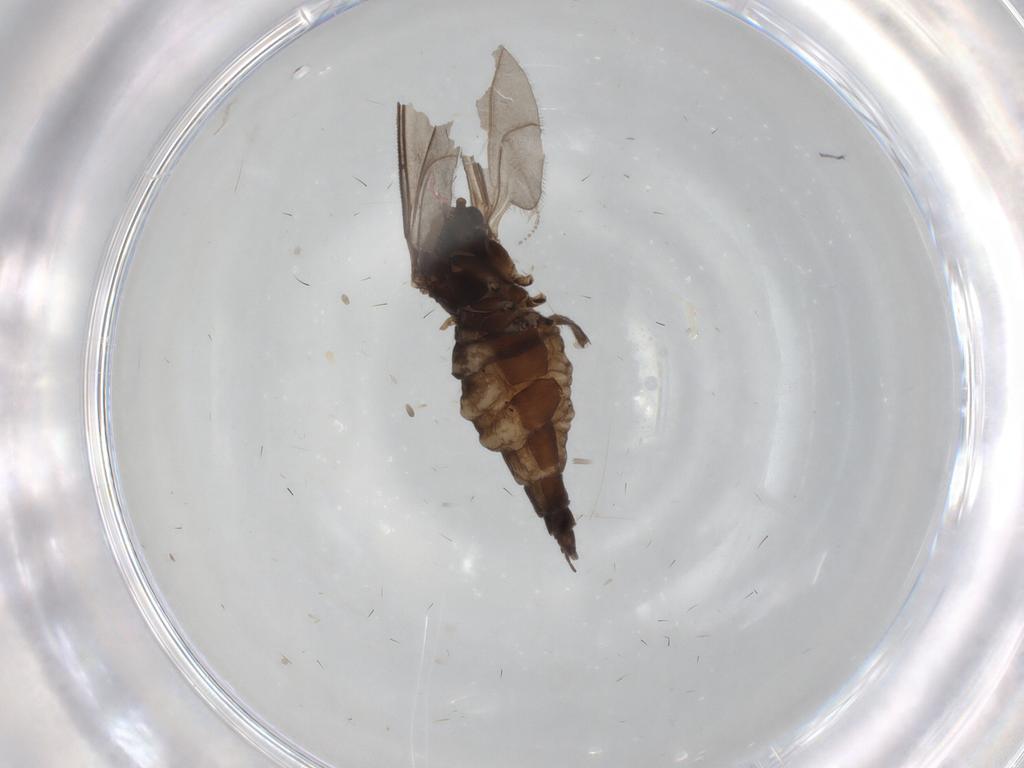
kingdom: Animalia
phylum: Arthropoda
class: Insecta
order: Diptera
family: Sciaridae
